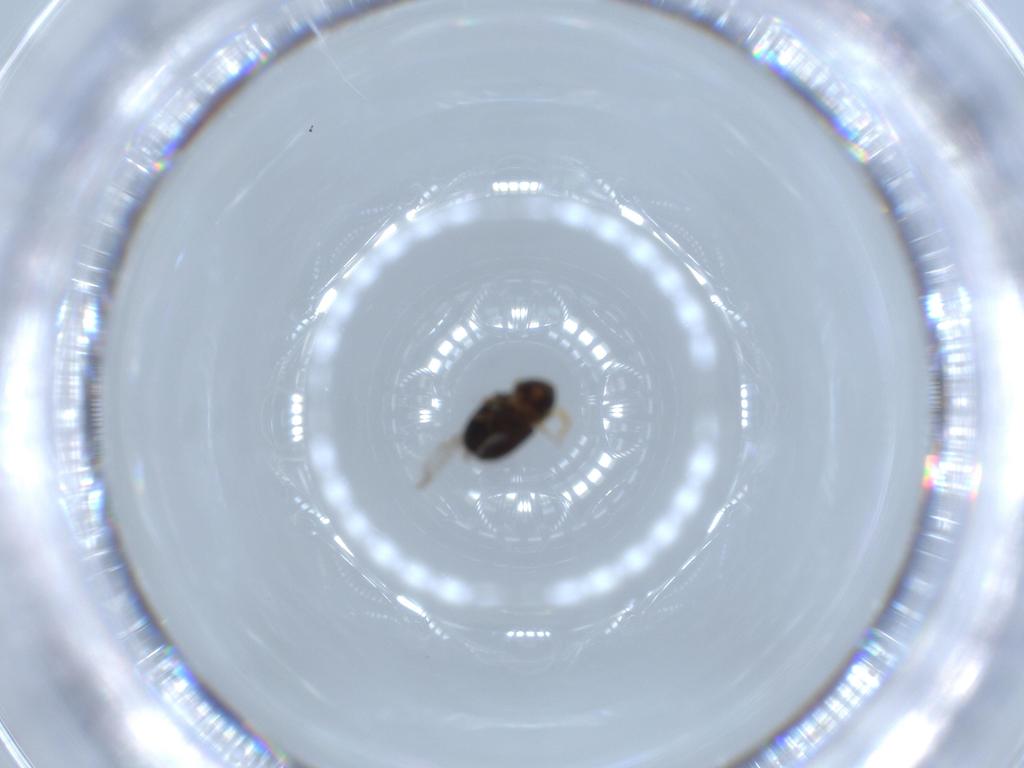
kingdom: Animalia
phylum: Arthropoda
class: Insecta
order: Coleoptera
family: Curculionidae
